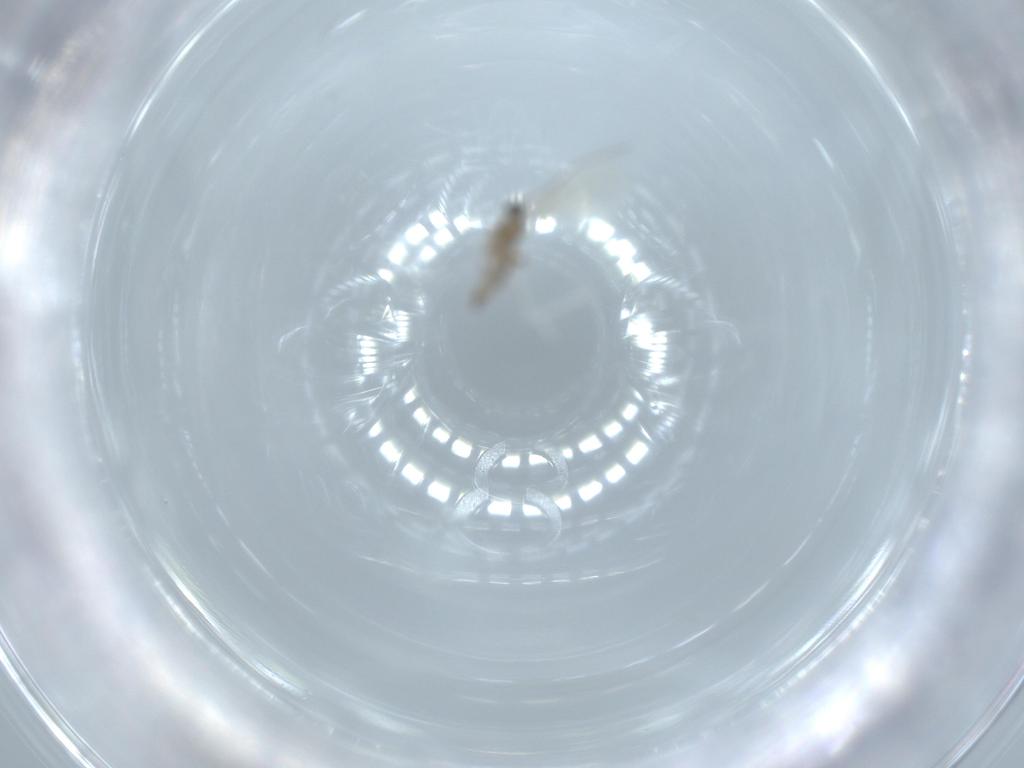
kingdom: Animalia
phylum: Arthropoda
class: Insecta
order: Diptera
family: Cecidomyiidae
